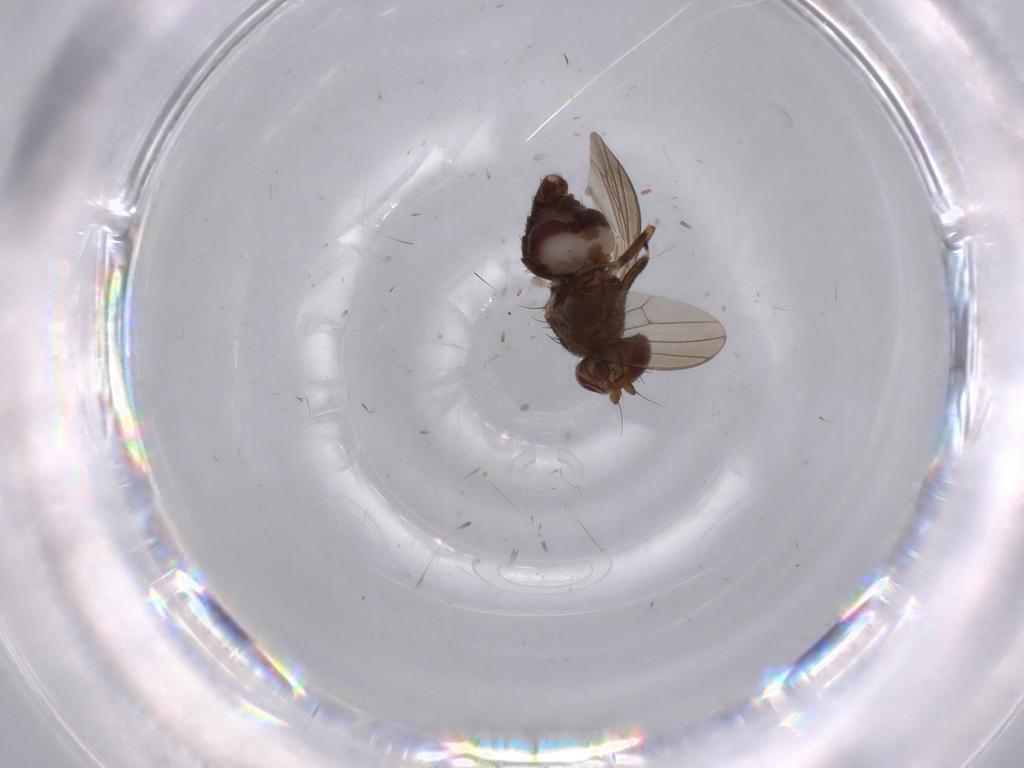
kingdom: Animalia
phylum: Arthropoda
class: Insecta
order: Diptera
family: Heleomyzidae
